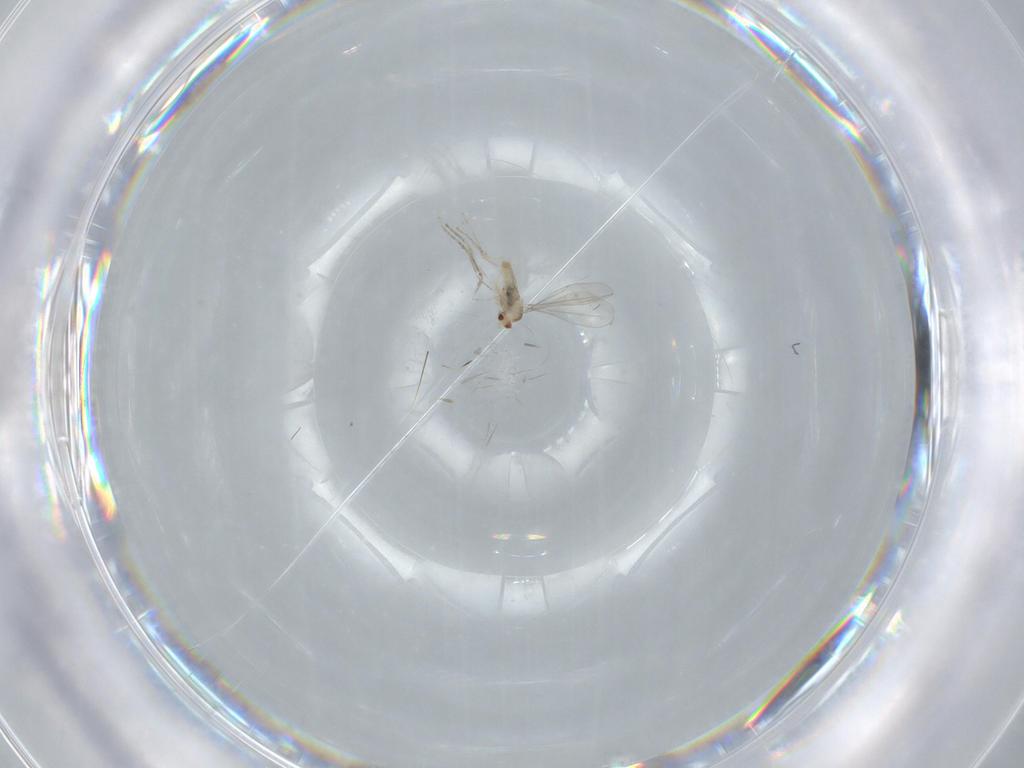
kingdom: Animalia
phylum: Arthropoda
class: Insecta
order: Diptera
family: Cecidomyiidae
